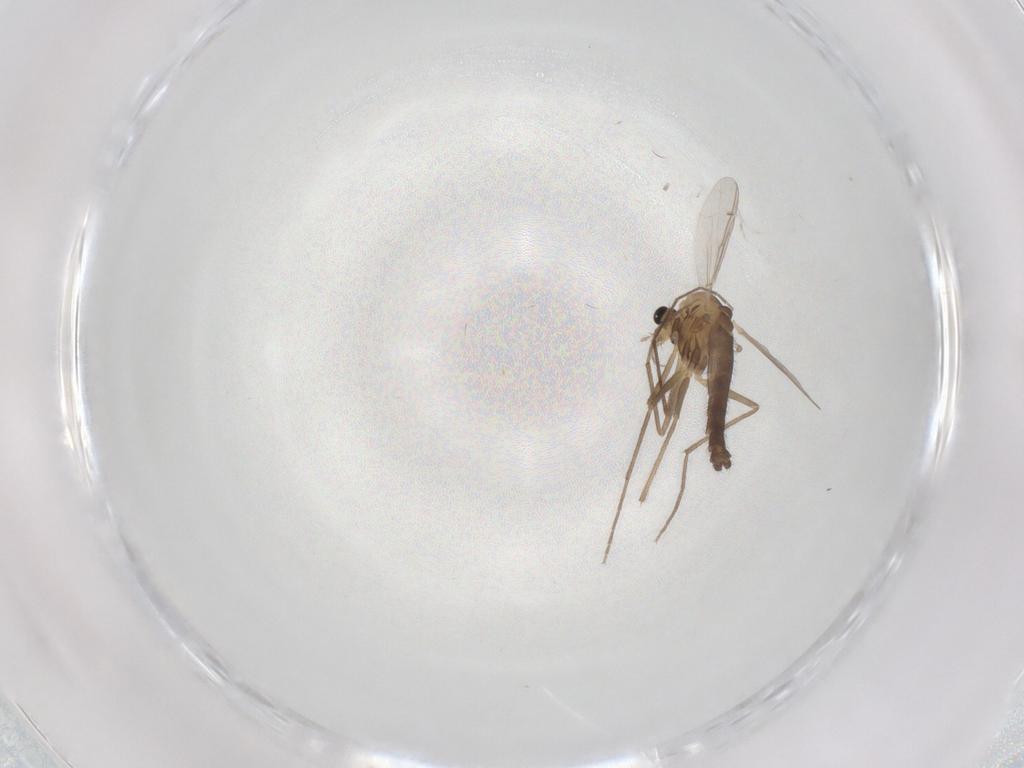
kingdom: Animalia
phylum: Arthropoda
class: Insecta
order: Diptera
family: Chironomidae
